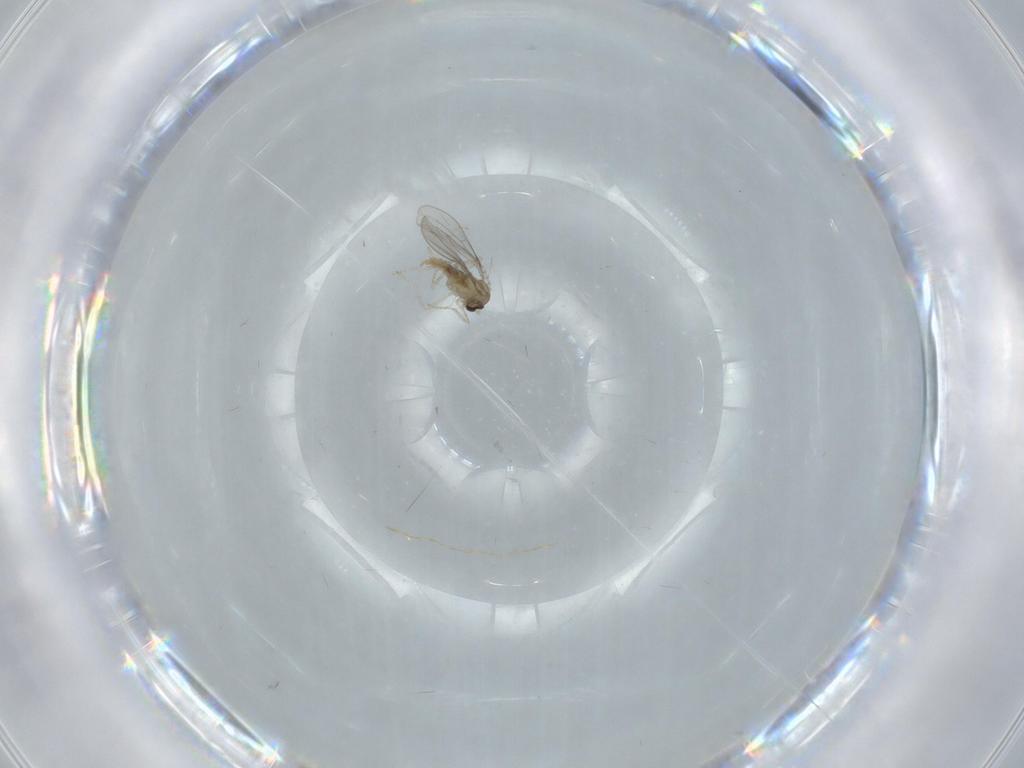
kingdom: Animalia
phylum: Arthropoda
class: Insecta
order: Diptera
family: Cecidomyiidae
